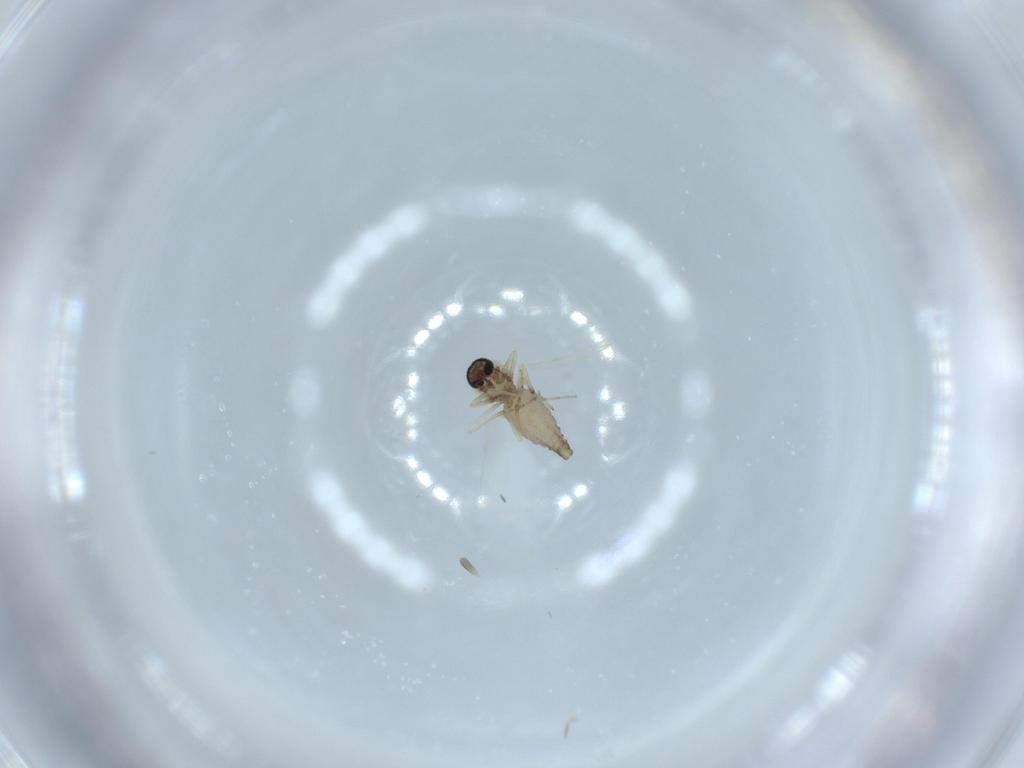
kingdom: Animalia
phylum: Arthropoda
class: Insecta
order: Diptera
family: Ceratopogonidae
